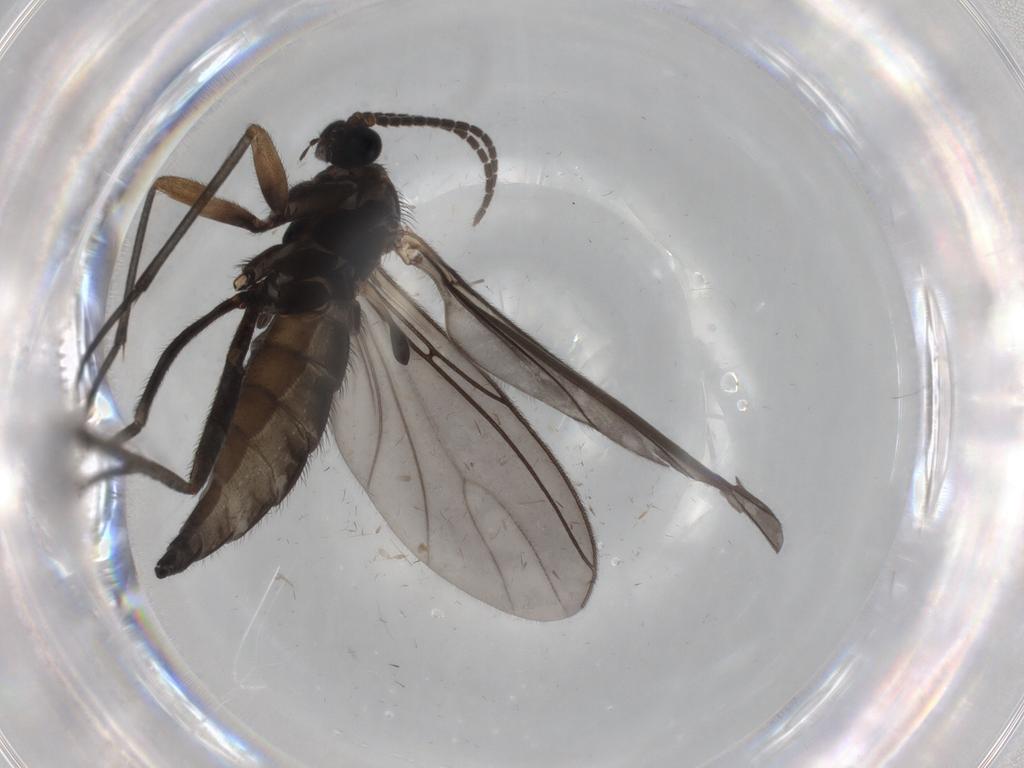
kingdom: Animalia
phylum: Arthropoda
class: Insecta
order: Diptera
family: Sciaridae
